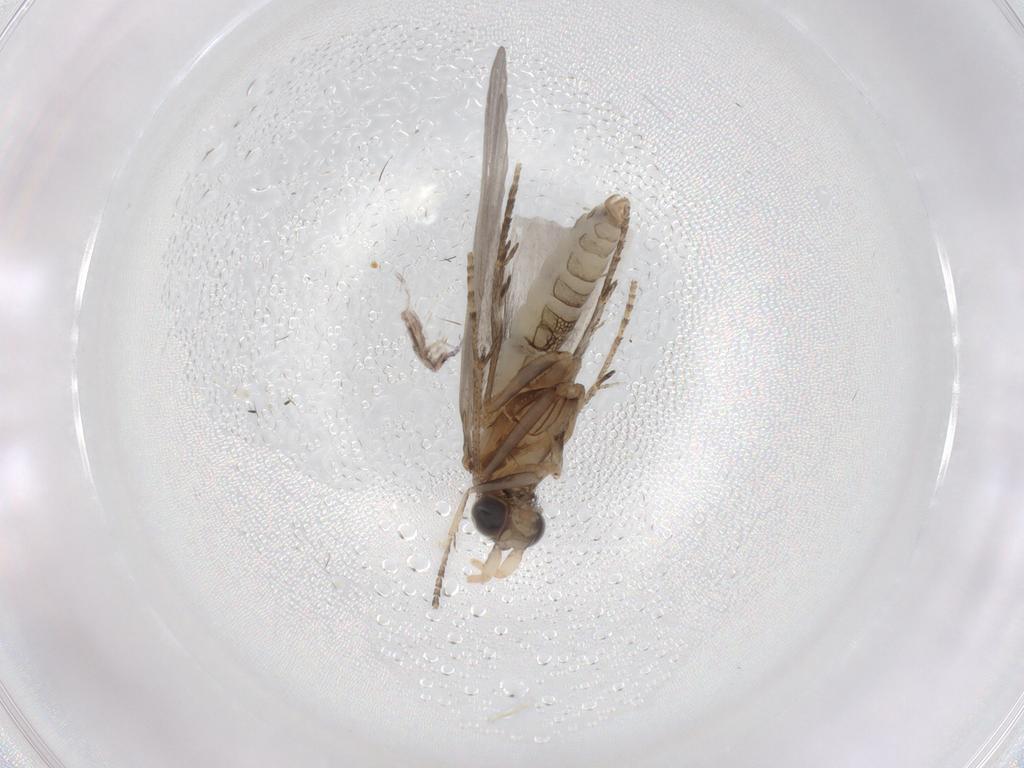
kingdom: Animalia
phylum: Arthropoda
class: Insecta
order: Trichoptera
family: Helicopsychidae
